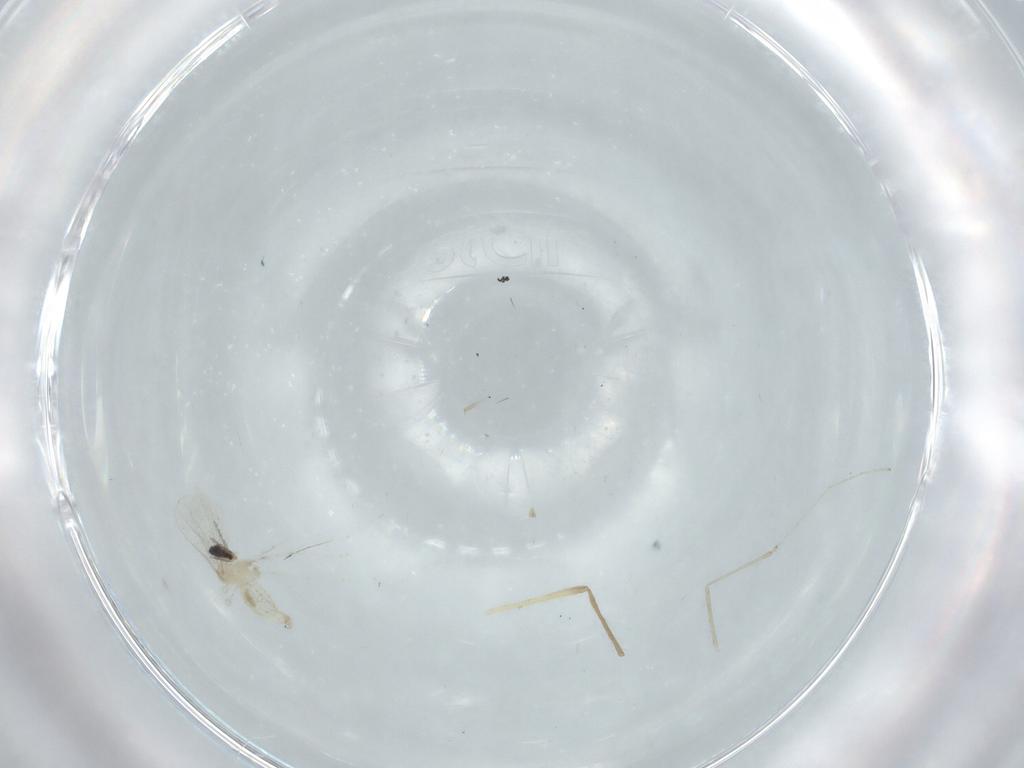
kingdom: Animalia
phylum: Arthropoda
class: Insecta
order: Diptera
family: Cecidomyiidae
